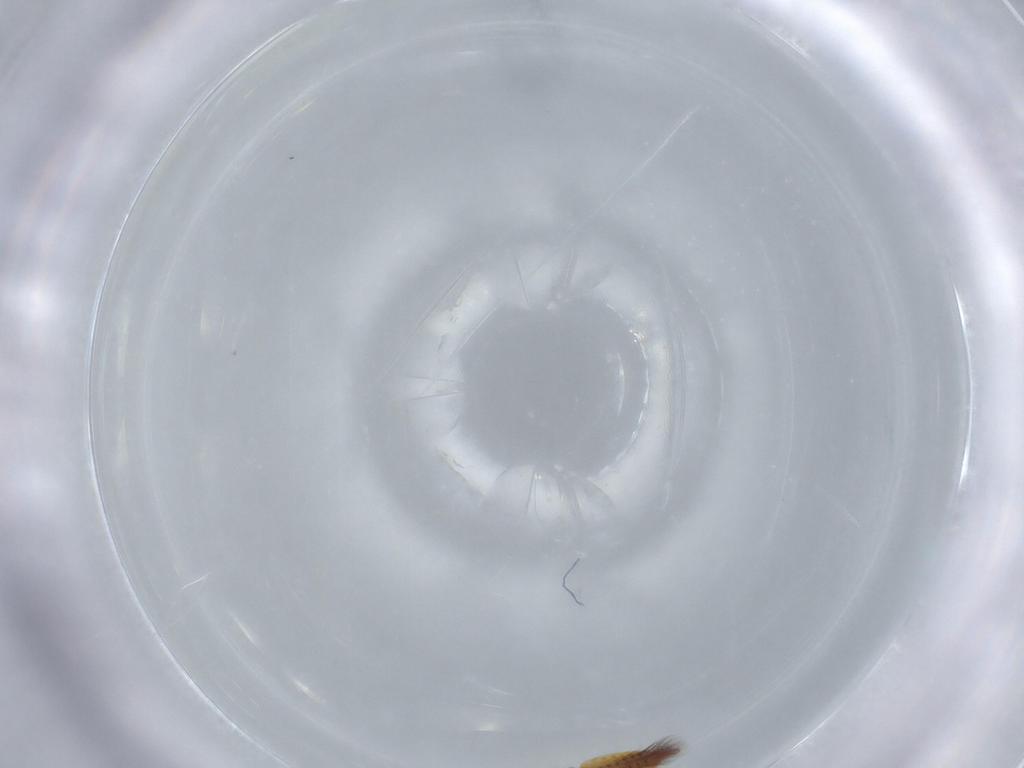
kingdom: Animalia
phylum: Arthropoda
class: Insecta
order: Thysanoptera
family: Phlaeothripidae
